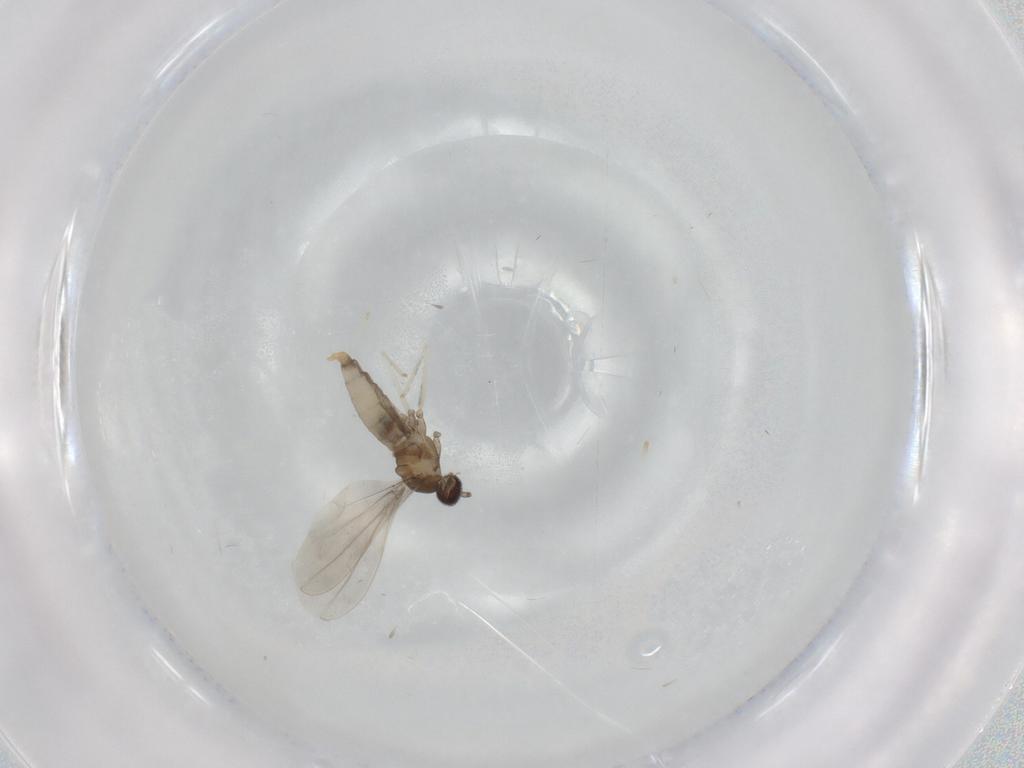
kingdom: Animalia
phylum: Arthropoda
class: Insecta
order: Diptera
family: Cecidomyiidae
